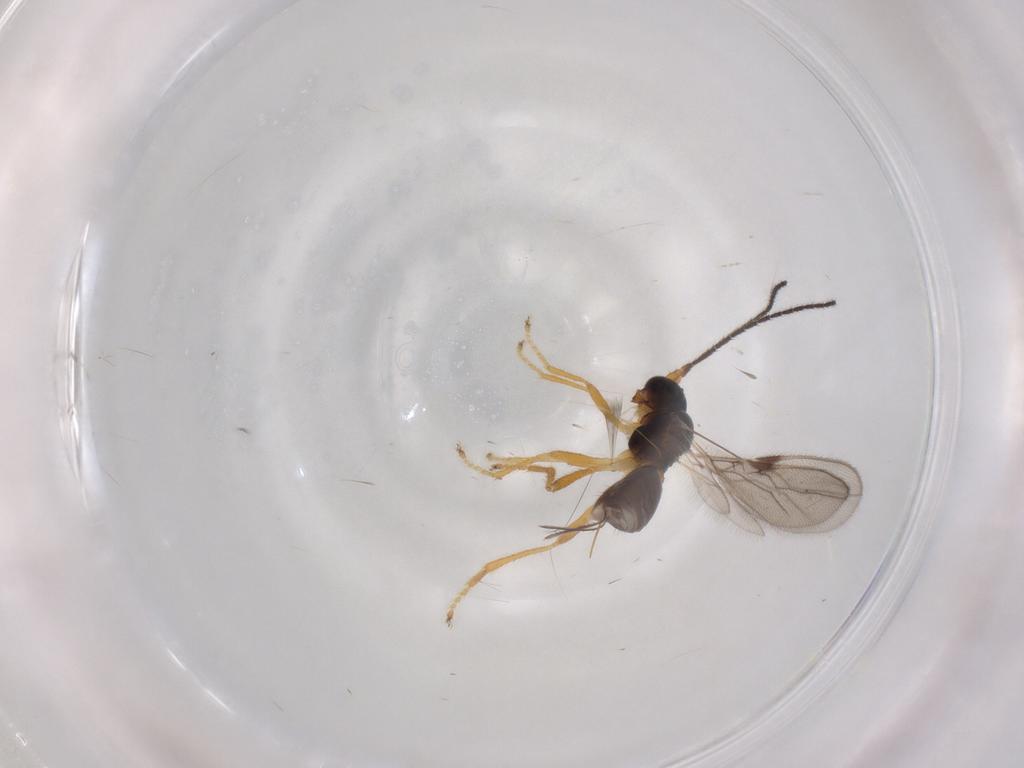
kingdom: Animalia
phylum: Arthropoda
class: Insecta
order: Hymenoptera
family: Braconidae
